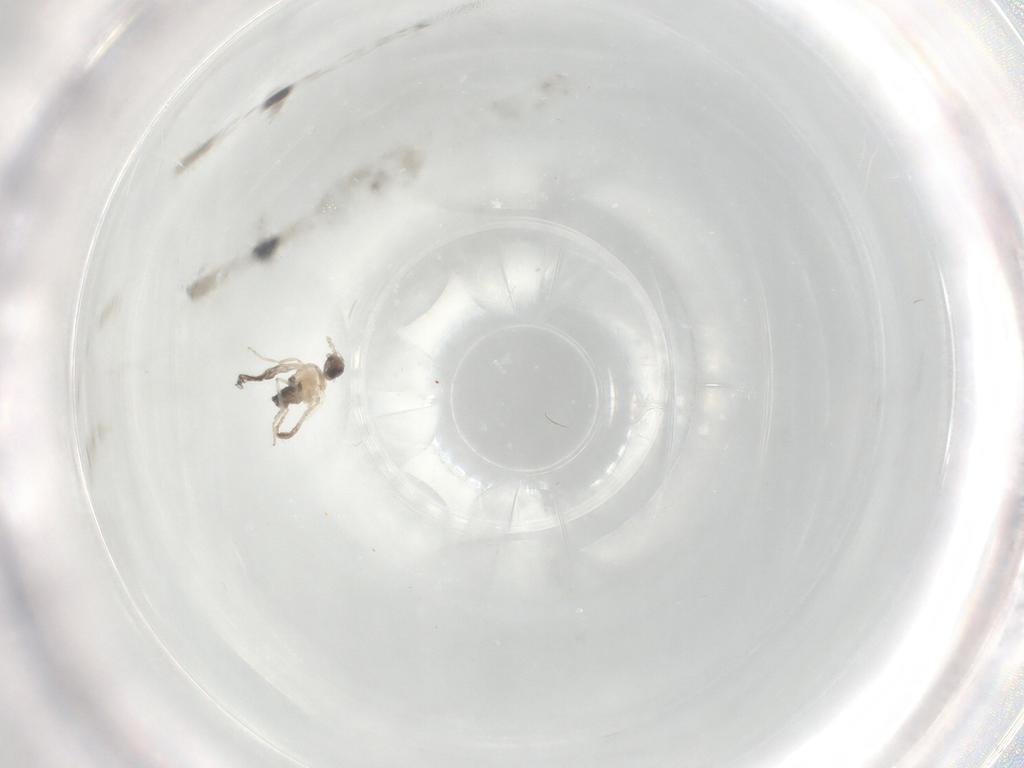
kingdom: Animalia
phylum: Arthropoda
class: Insecta
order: Diptera
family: Cecidomyiidae
